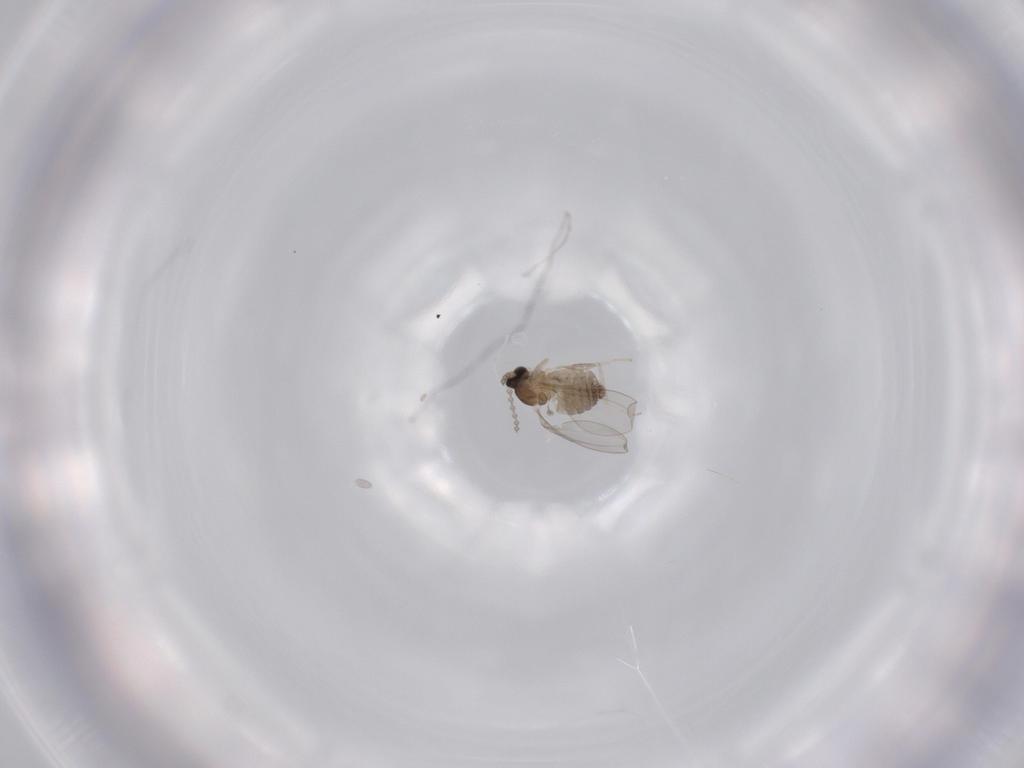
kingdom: Animalia
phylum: Arthropoda
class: Insecta
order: Diptera
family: Cecidomyiidae
